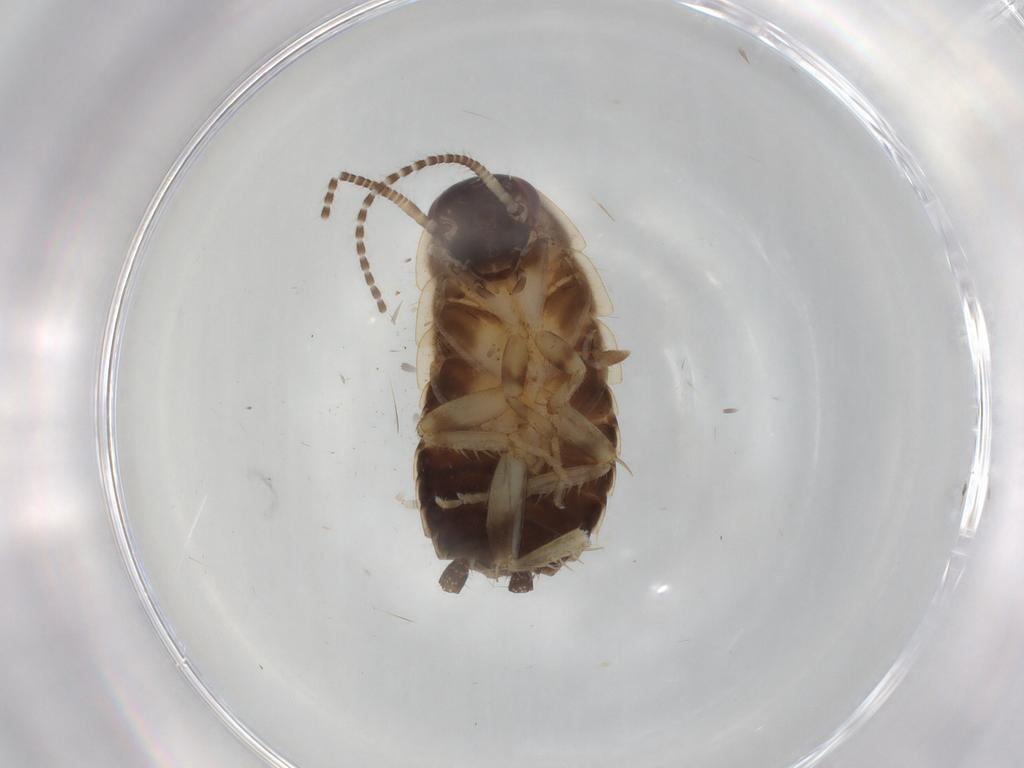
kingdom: Animalia
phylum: Arthropoda
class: Insecta
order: Blattodea
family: Ectobiidae
